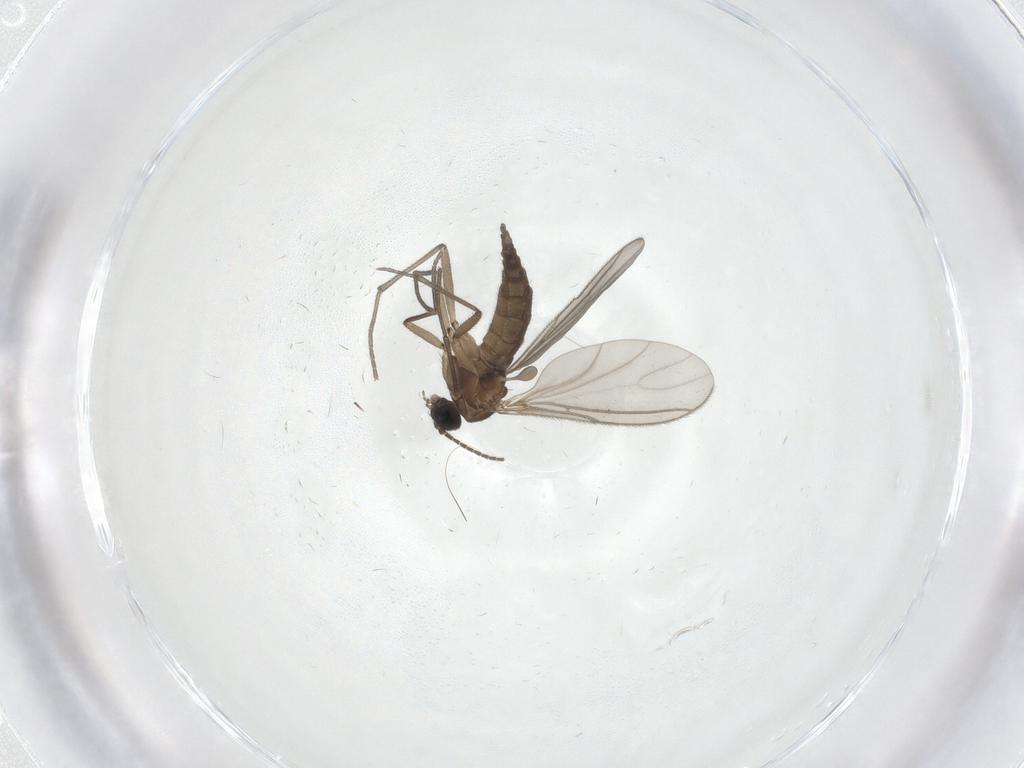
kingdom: Animalia
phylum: Arthropoda
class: Insecta
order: Diptera
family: Sciaridae
